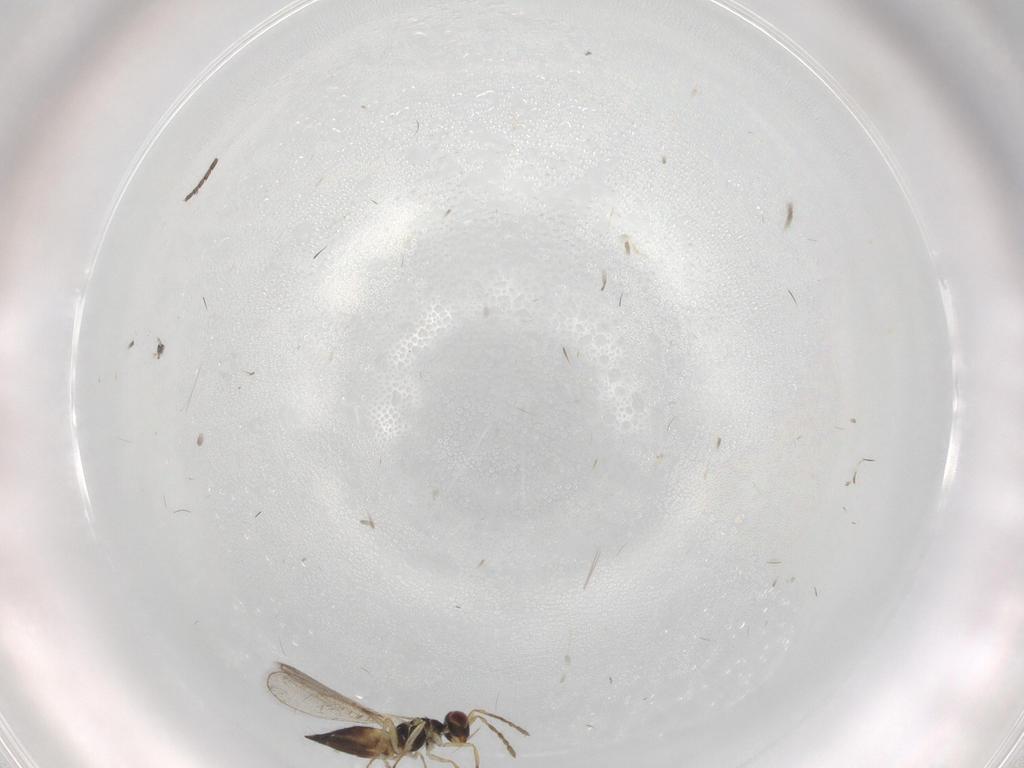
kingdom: Animalia
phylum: Arthropoda
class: Insecta
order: Hymenoptera
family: Eulophidae
